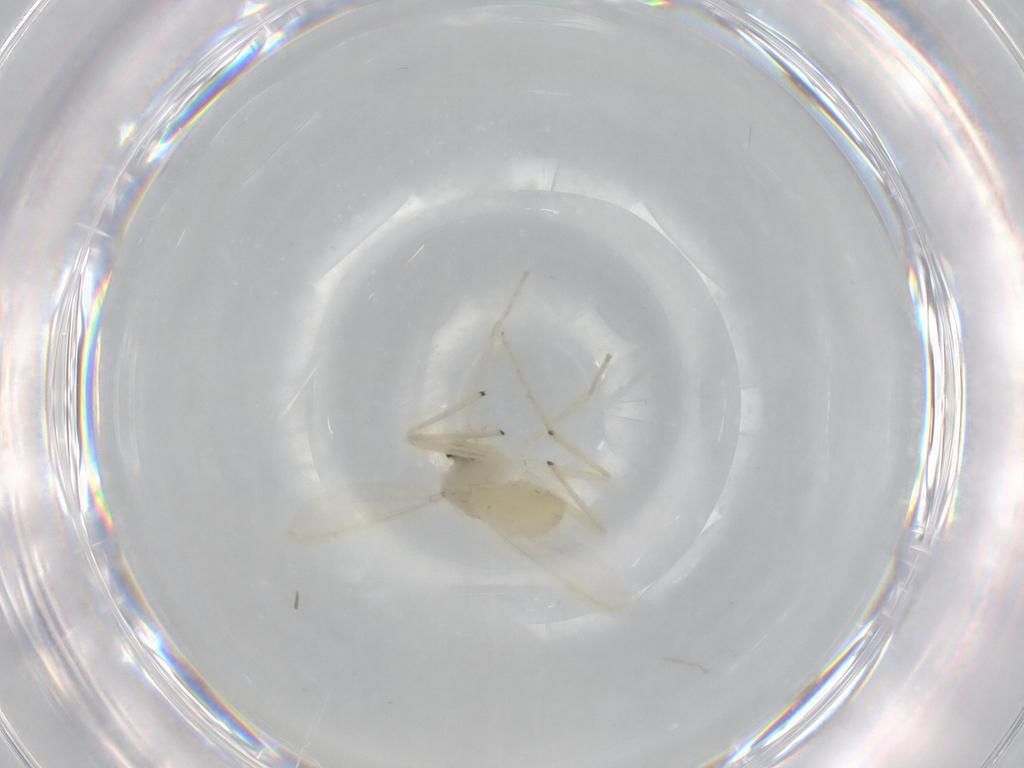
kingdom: Animalia
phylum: Arthropoda
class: Insecta
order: Diptera
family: Chironomidae
